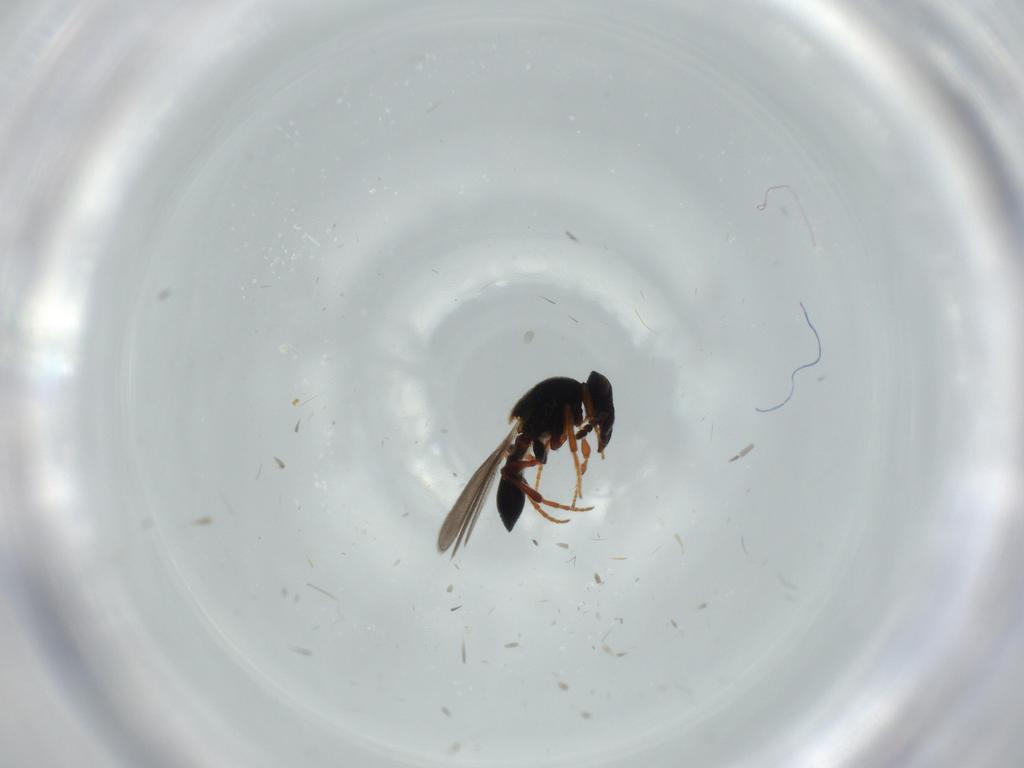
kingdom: Animalia
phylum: Arthropoda
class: Insecta
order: Hymenoptera
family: Platygastridae
